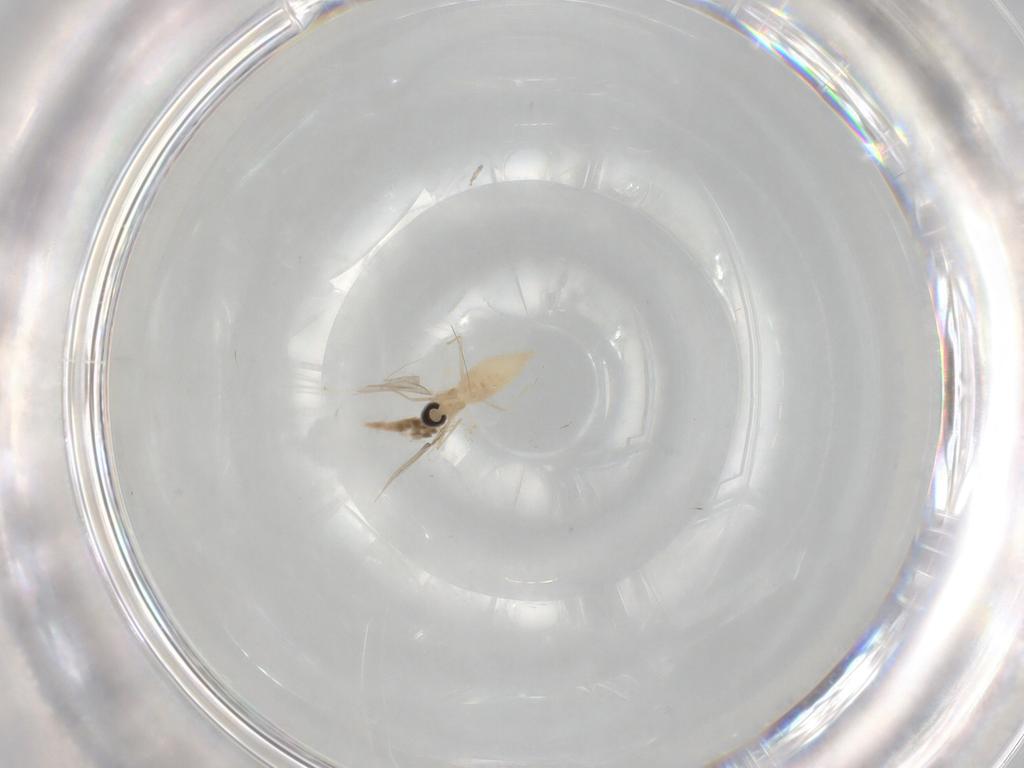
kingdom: Animalia
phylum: Arthropoda
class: Insecta
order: Diptera
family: Cecidomyiidae
